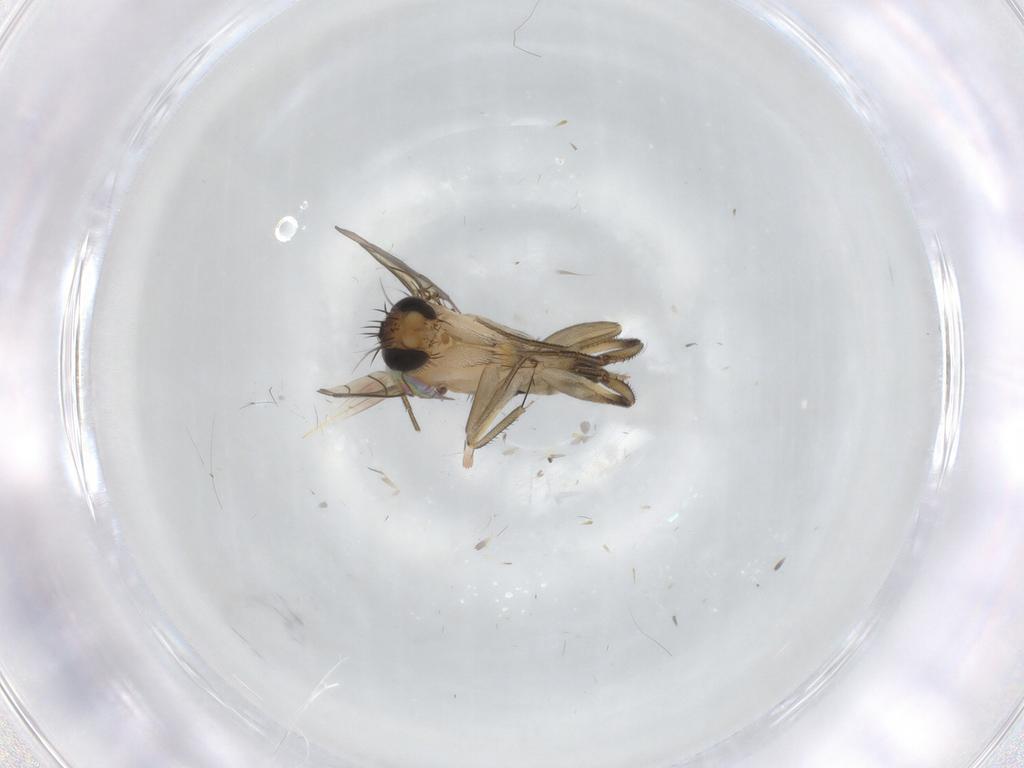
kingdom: Animalia
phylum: Arthropoda
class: Insecta
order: Diptera
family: Phoridae
